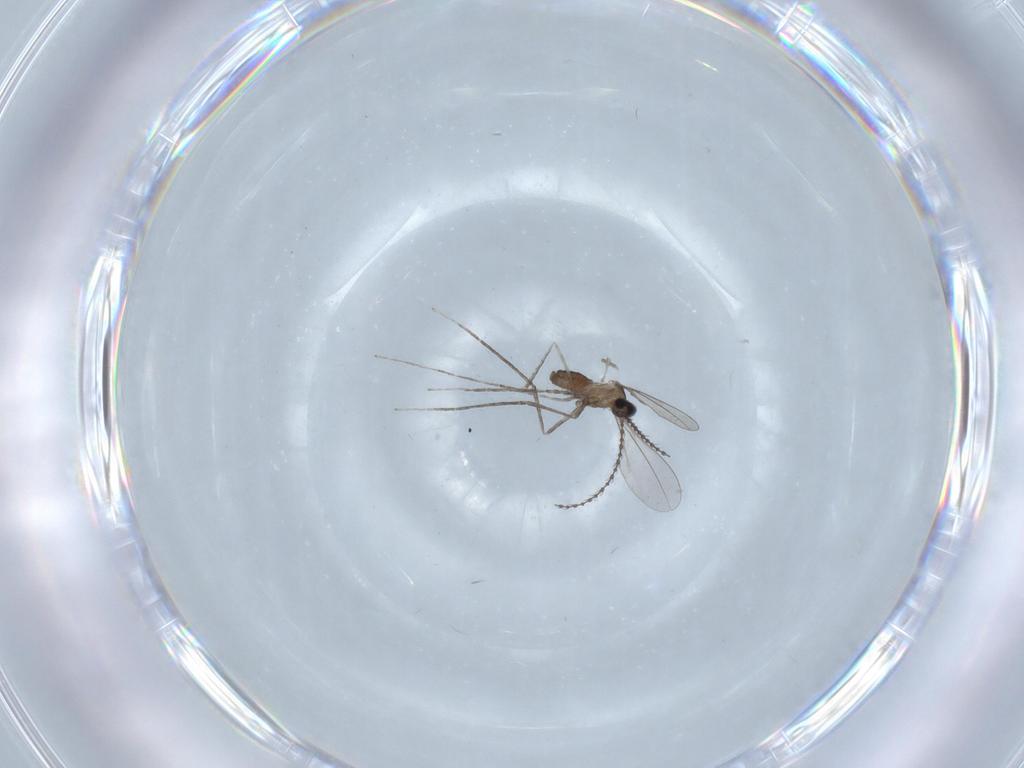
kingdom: Animalia
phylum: Arthropoda
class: Insecta
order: Diptera
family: Cecidomyiidae
